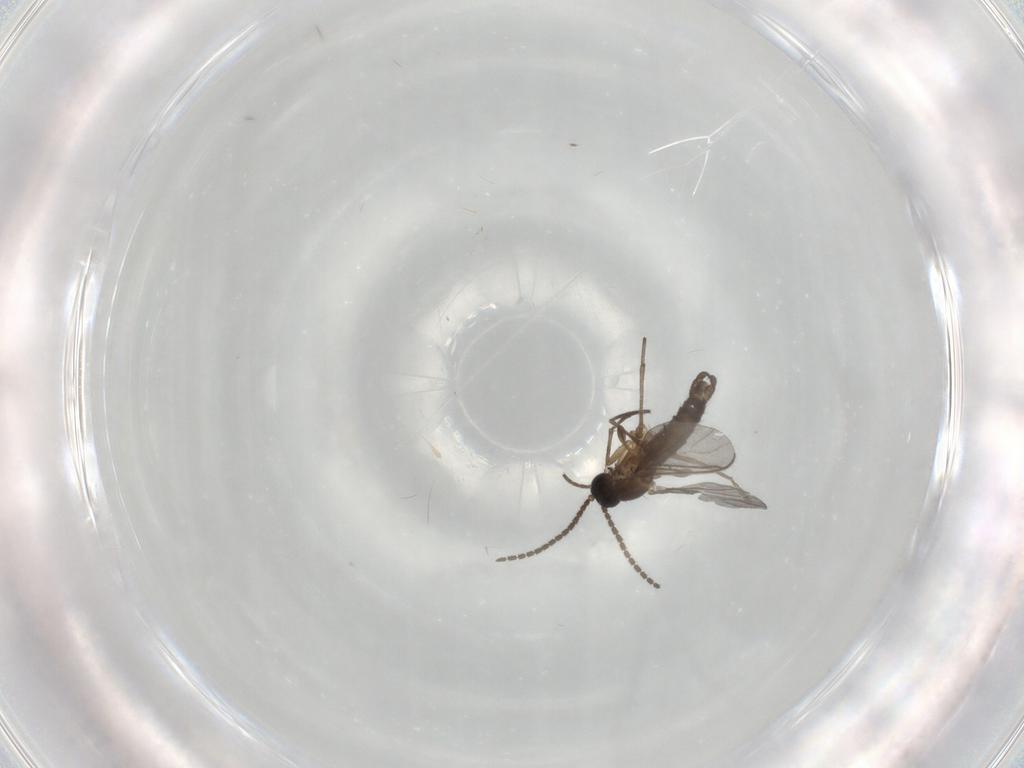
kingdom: Animalia
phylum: Arthropoda
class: Insecta
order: Diptera
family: Sciaridae
